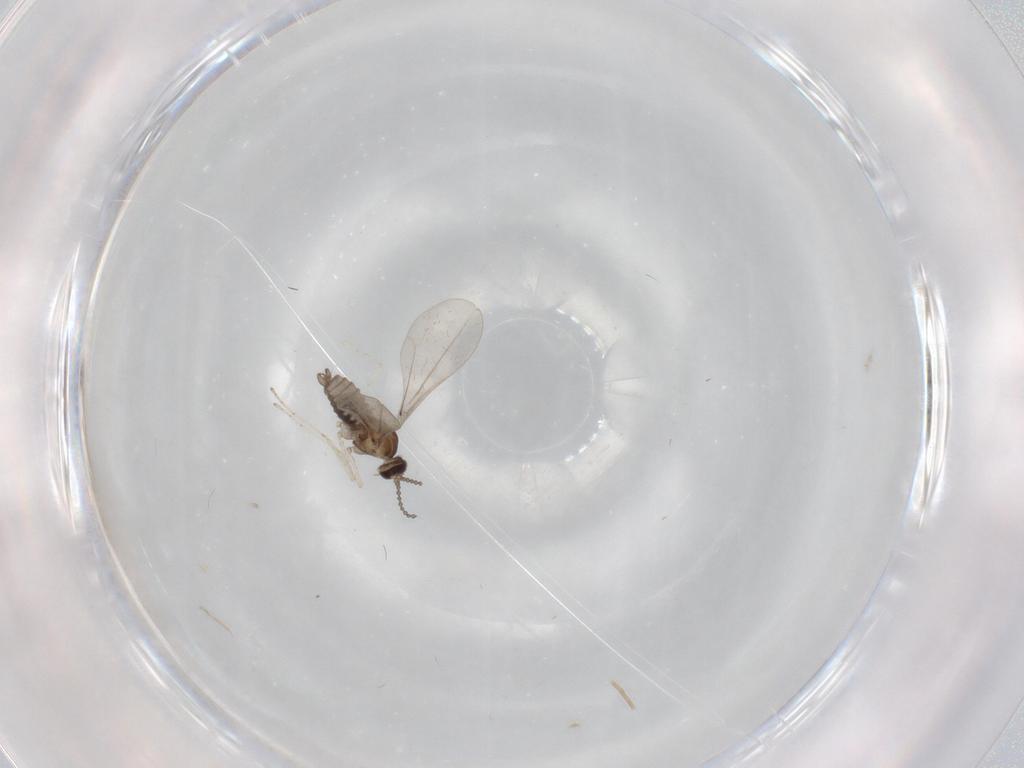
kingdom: Animalia
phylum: Arthropoda
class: Insecta
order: Diptera
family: Cecidomyiidae
